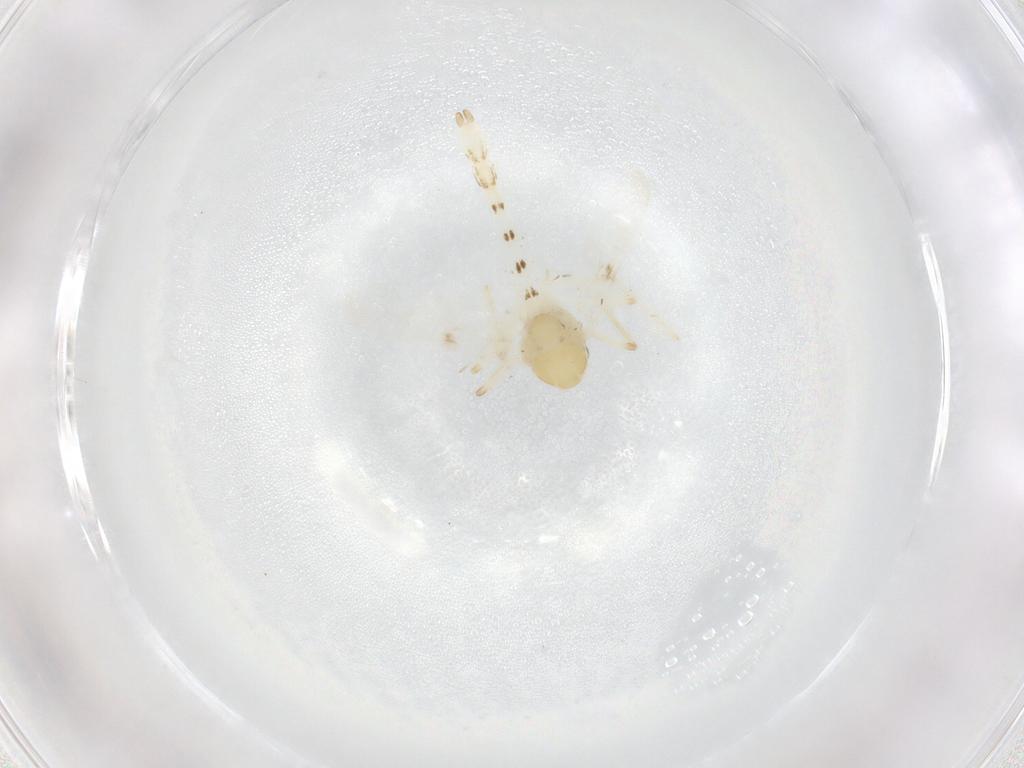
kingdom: Animalia
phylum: Arthropoda
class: Insecta
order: Diptera
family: Chironomidae
